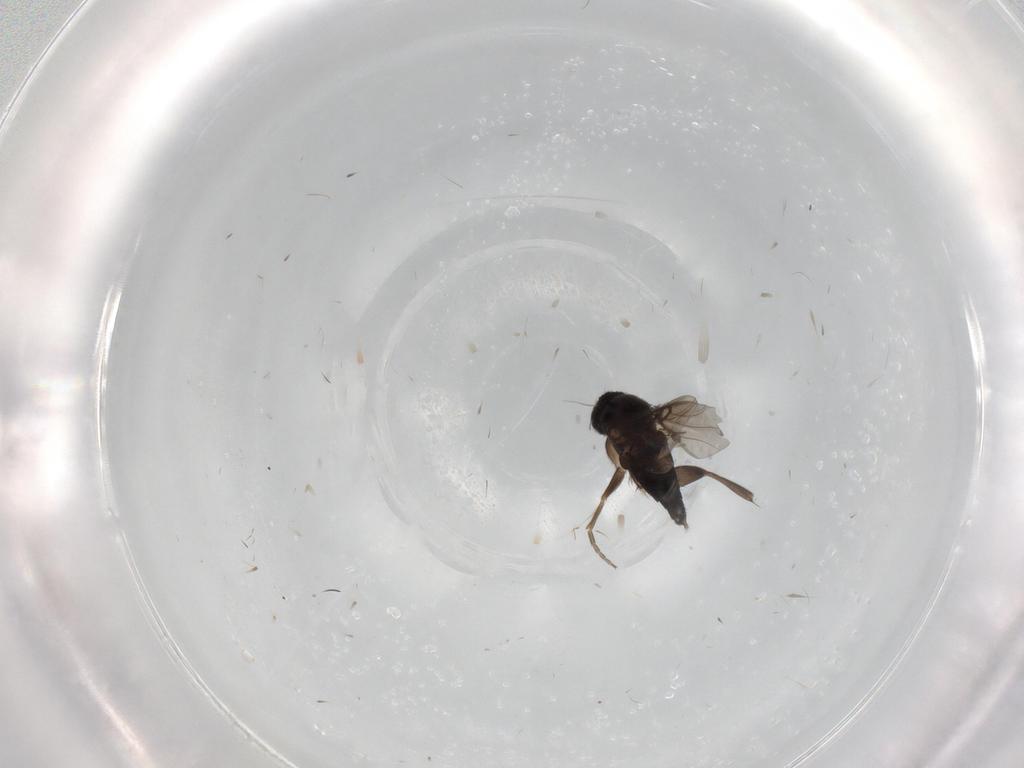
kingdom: Animalia
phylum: Arthropoda
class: Insecta
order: Diptera
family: Phoridae
